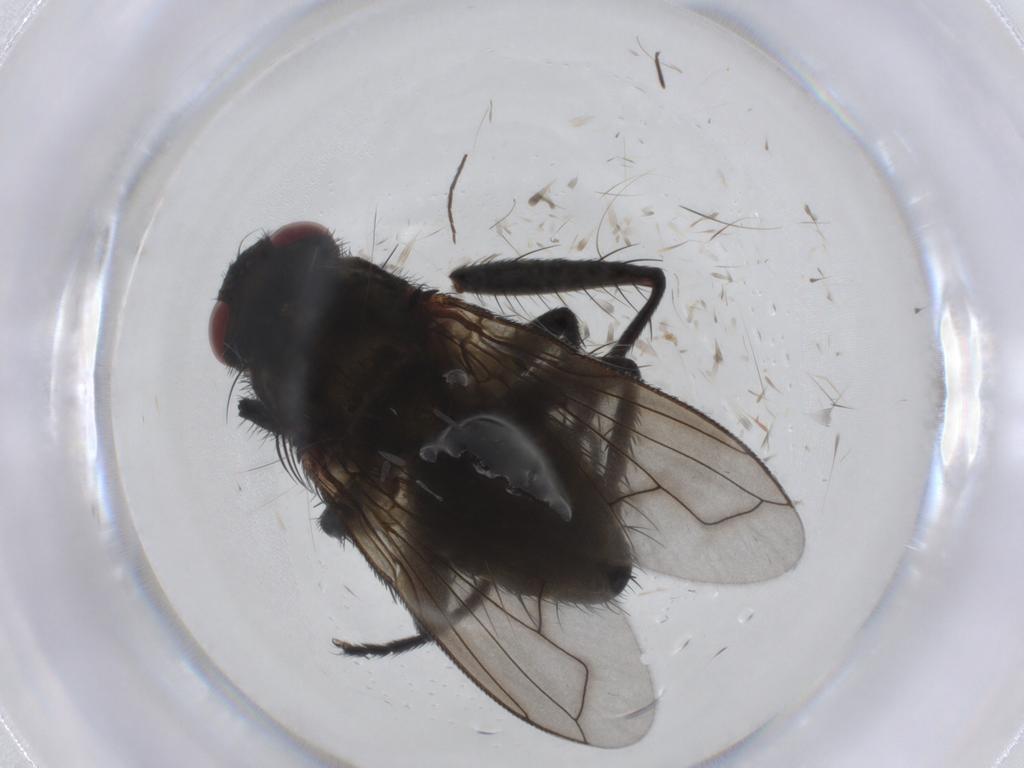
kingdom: Animalia
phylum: Arthropoda
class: Insecta
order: Diptera
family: Tachinidae
